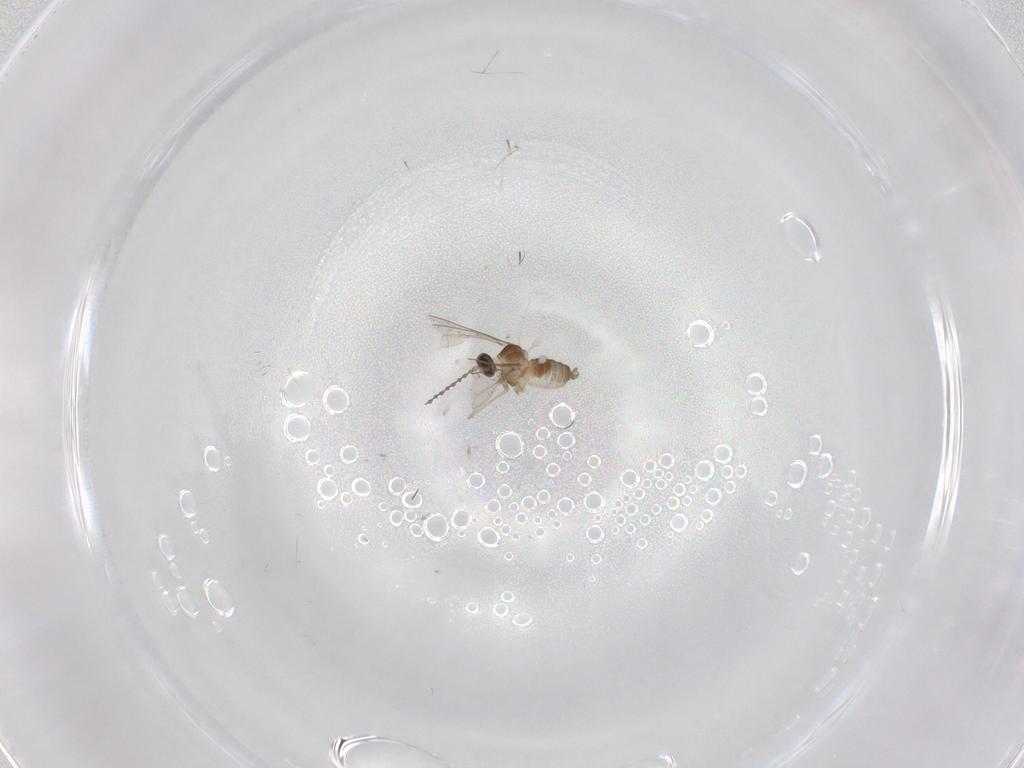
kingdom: Animalia
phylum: Arthropoda
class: Insecta
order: Diptera
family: Cecidomyiidae
